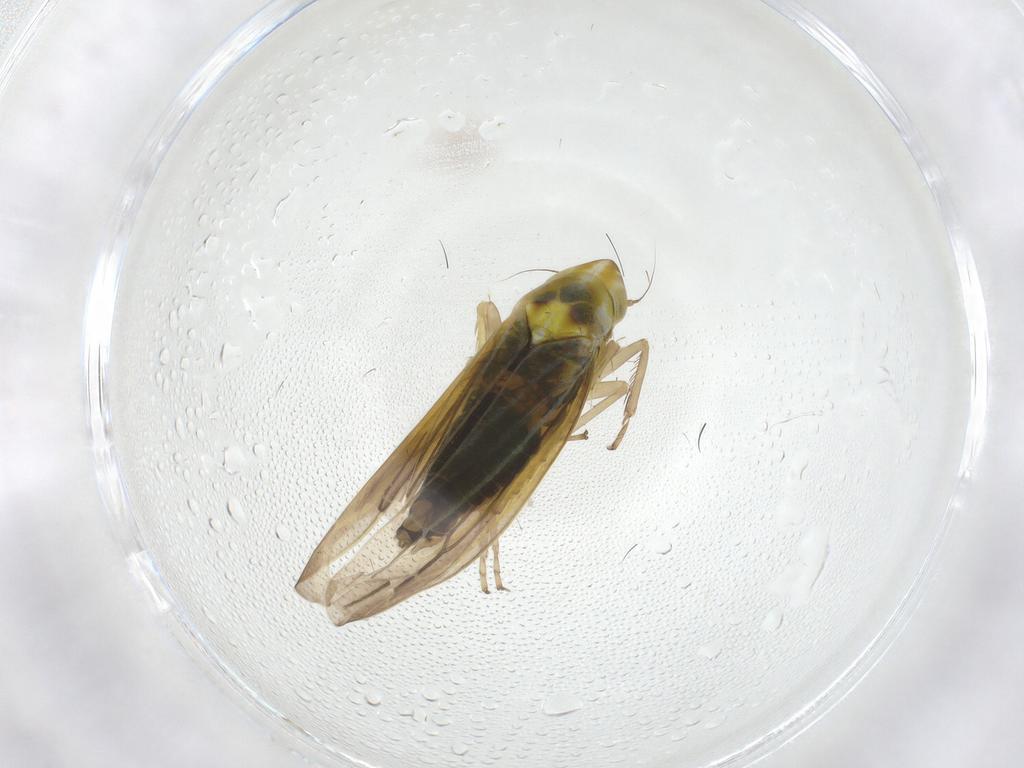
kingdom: Animalia
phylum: Arthropoda
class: Insecta
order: Hemiptera
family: Cicadellidae
